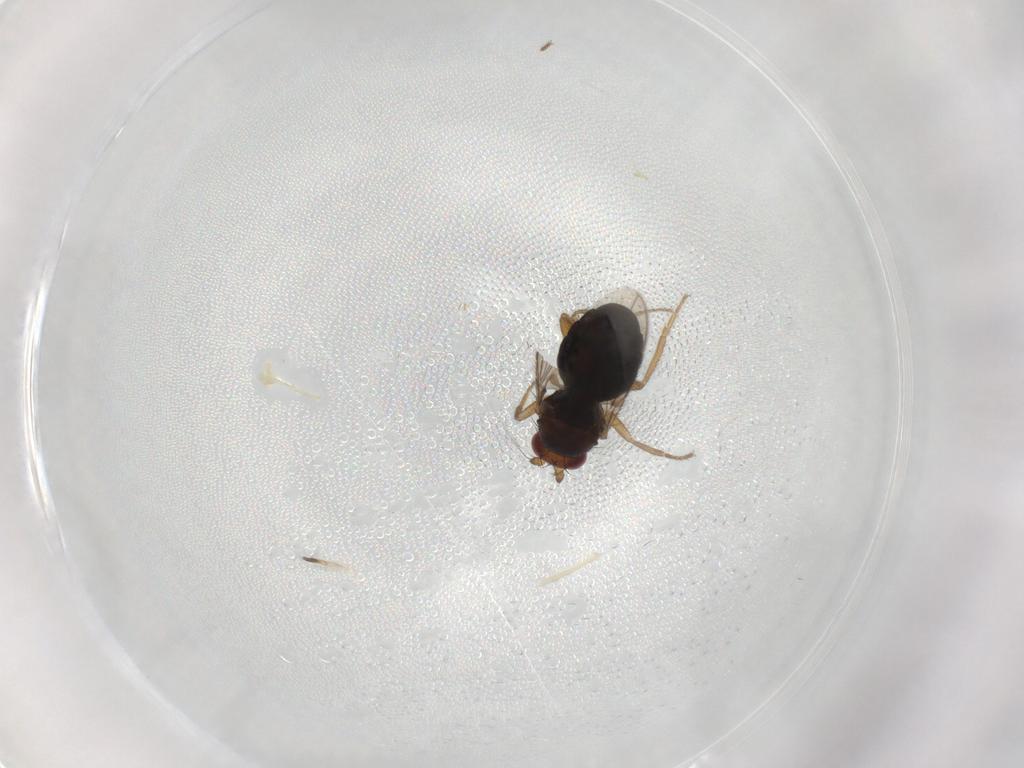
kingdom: Animalia
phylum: Arthropoda
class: Insecta
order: Diptera
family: Sphaeroceridae
